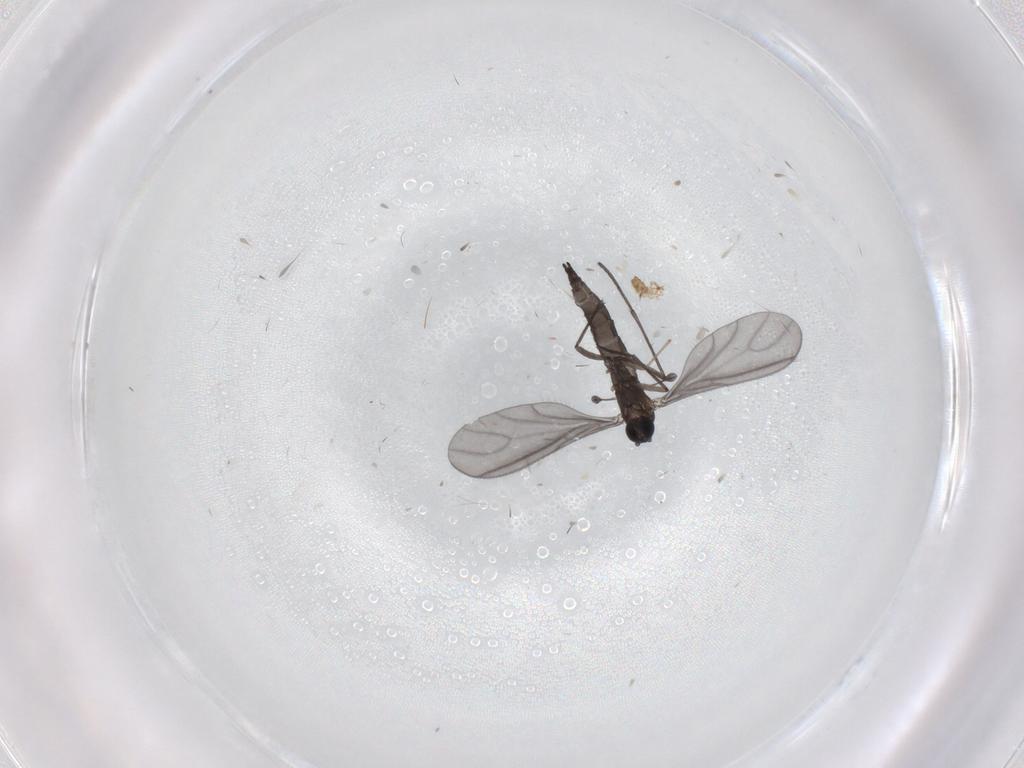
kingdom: Animalia
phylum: Arthropoda
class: Insecta
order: Diptera
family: Sciaridae
